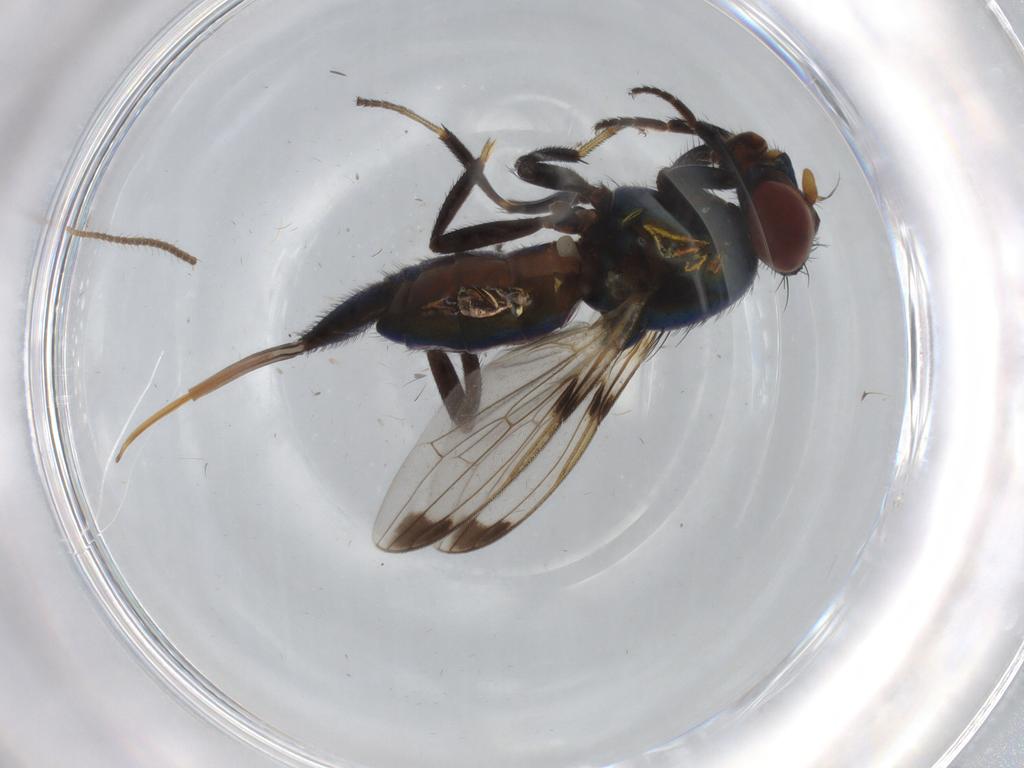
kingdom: Animalia
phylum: Arthropoda
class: Insecta
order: Diptera
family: Ulidiidae
